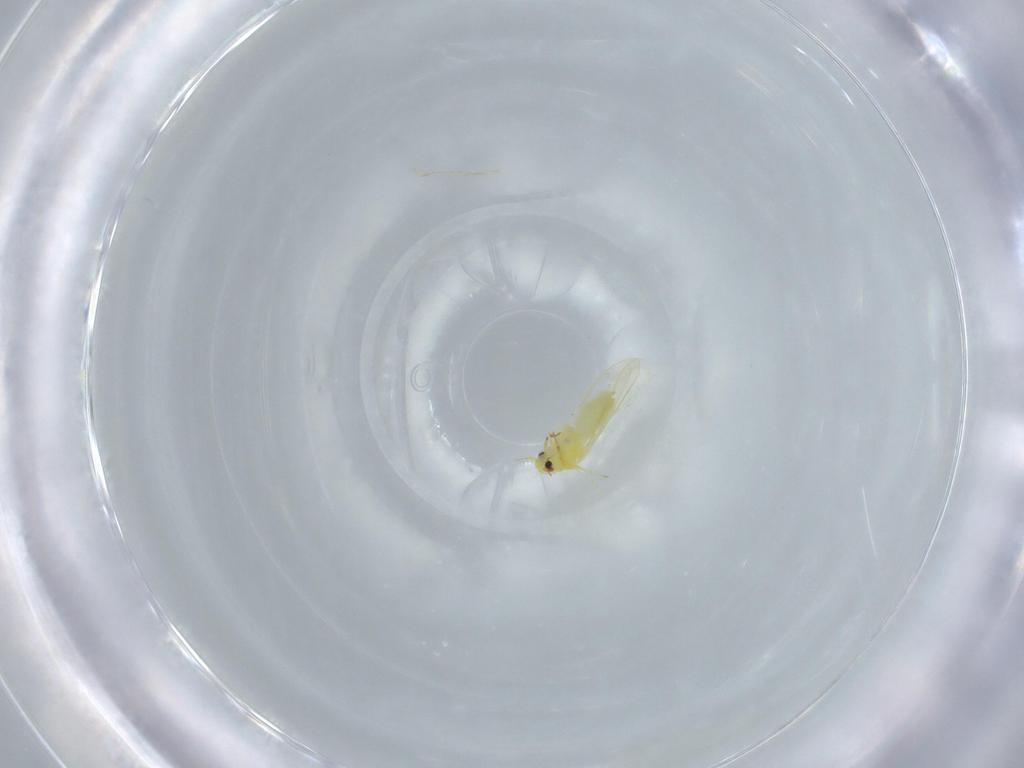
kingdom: Animalia
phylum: Arthropoda
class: Insecta
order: Hemiptera
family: Aleyrodidae
